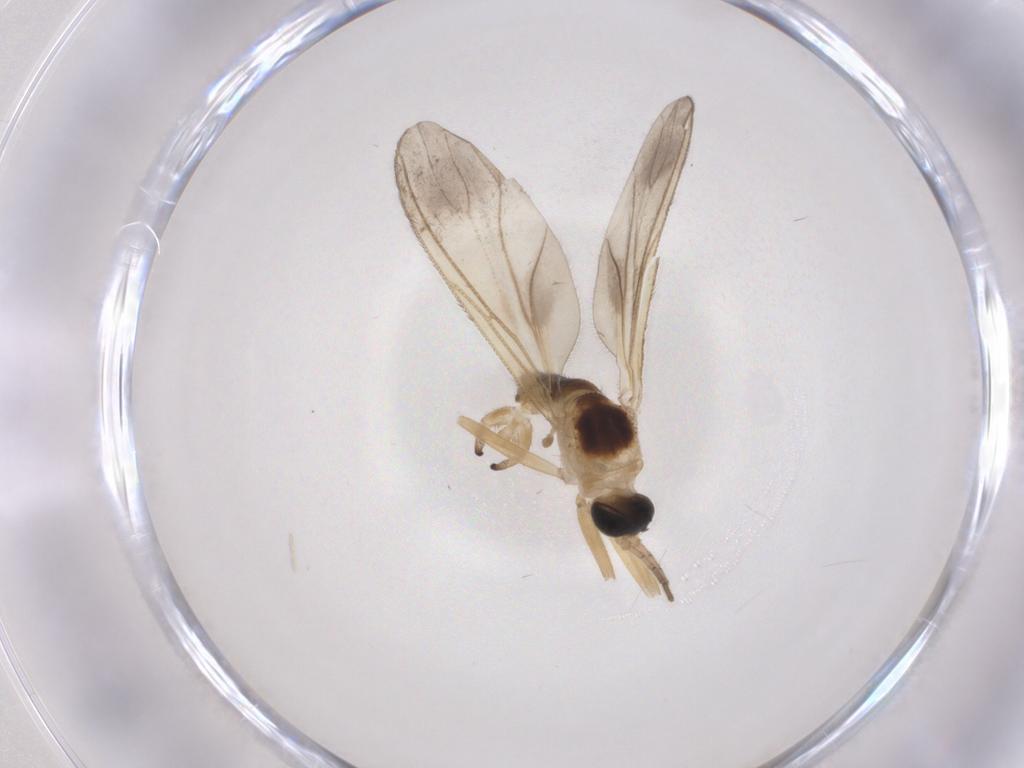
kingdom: Animalia
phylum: Arthropoda
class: Insecta
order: Diptera
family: Sciaridae
